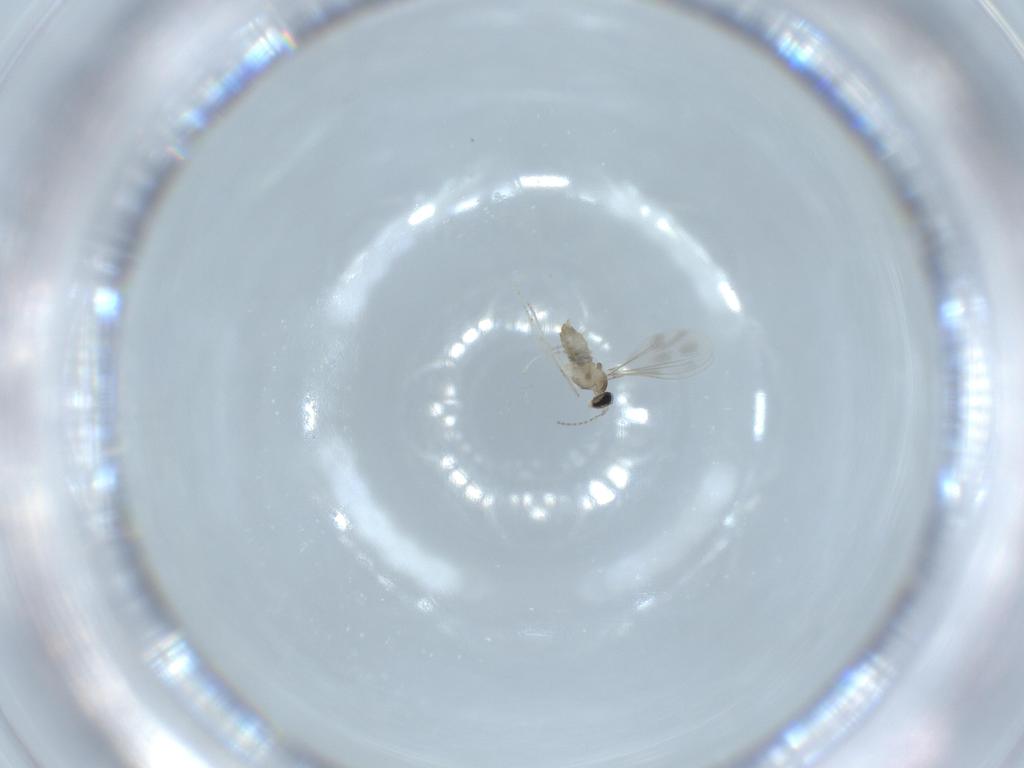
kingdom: Animalia
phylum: Arthropoda
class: Insecta
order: Diptera
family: Cecidomyiidae
